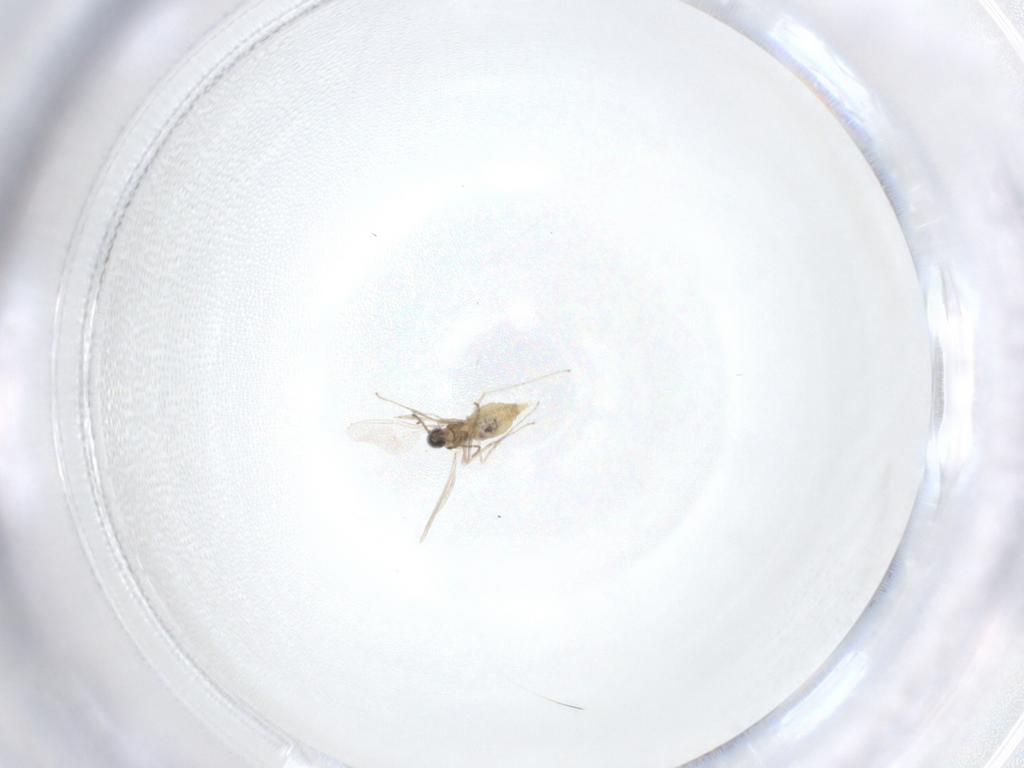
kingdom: Animalia
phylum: Arthropoda
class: Insecta
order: Diptera
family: Cecidomyiidae
